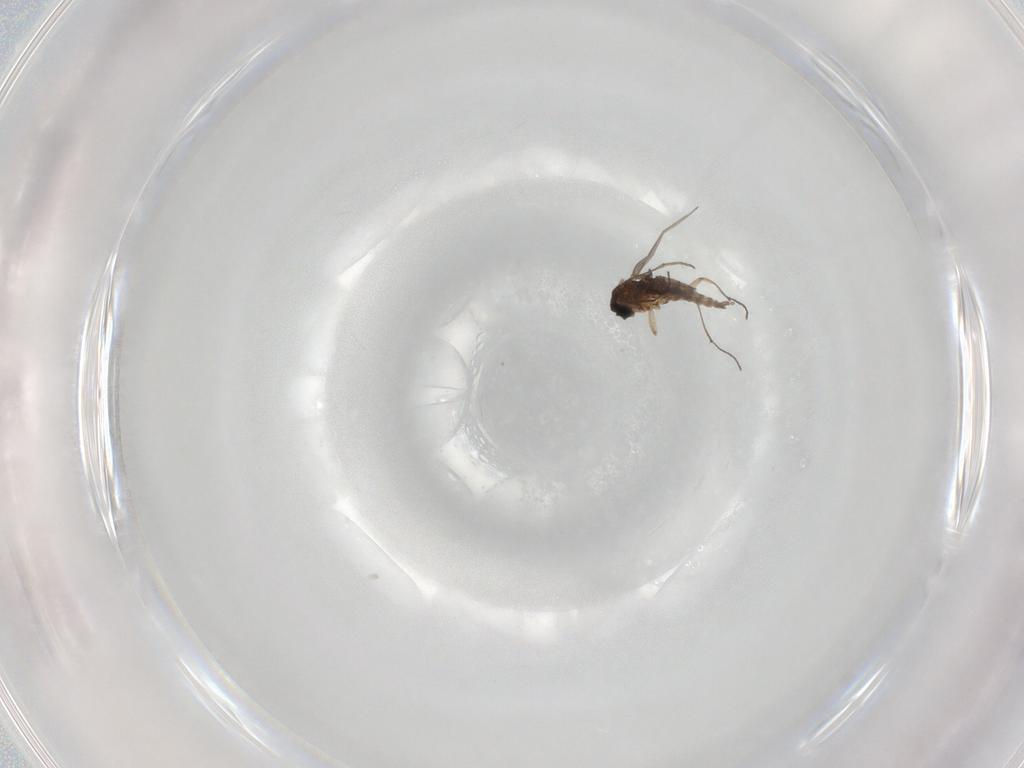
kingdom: Animalia
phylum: Arthropoda
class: Insecta
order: Diptera
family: Sciaridae
